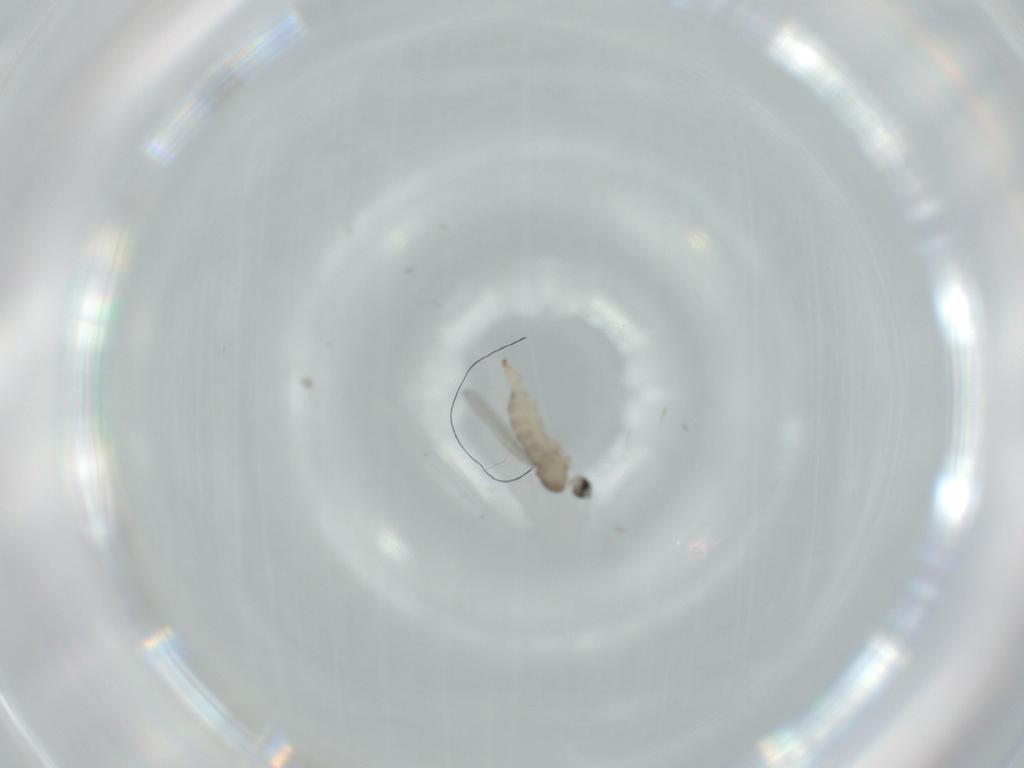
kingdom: Animalia
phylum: Arthropoda
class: Insecta
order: Diptera
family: Cecidomyiidae
